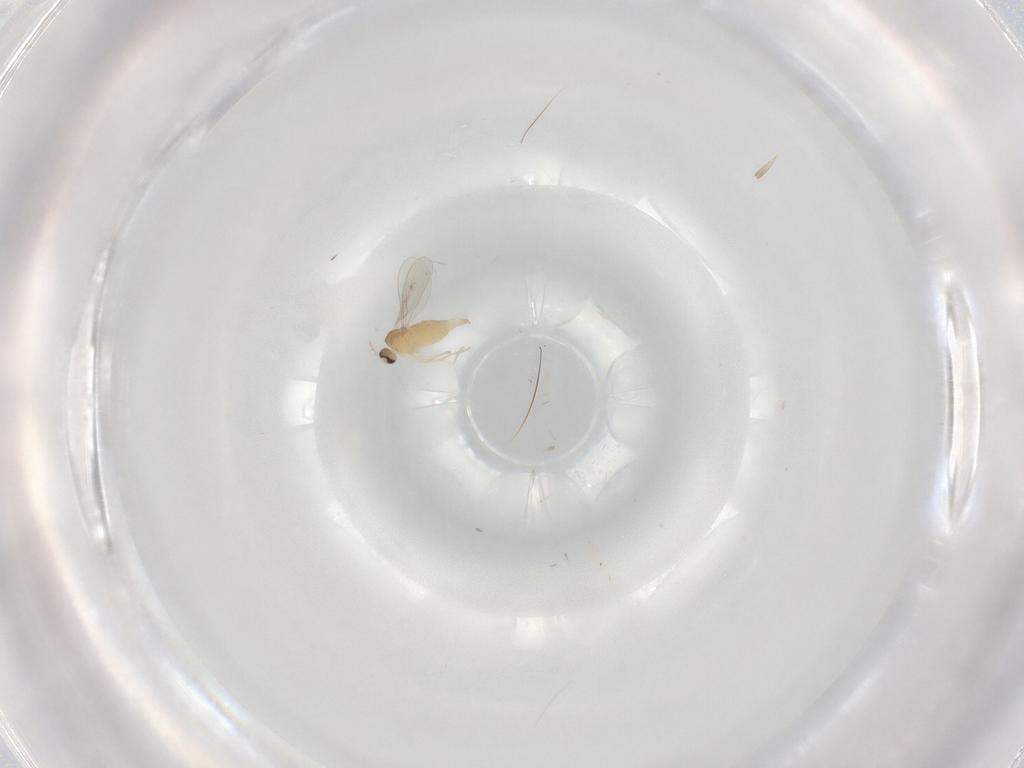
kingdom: Animalia
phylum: Arthropoda
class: Insecta
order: Diptera
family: Cecidomyiidae
